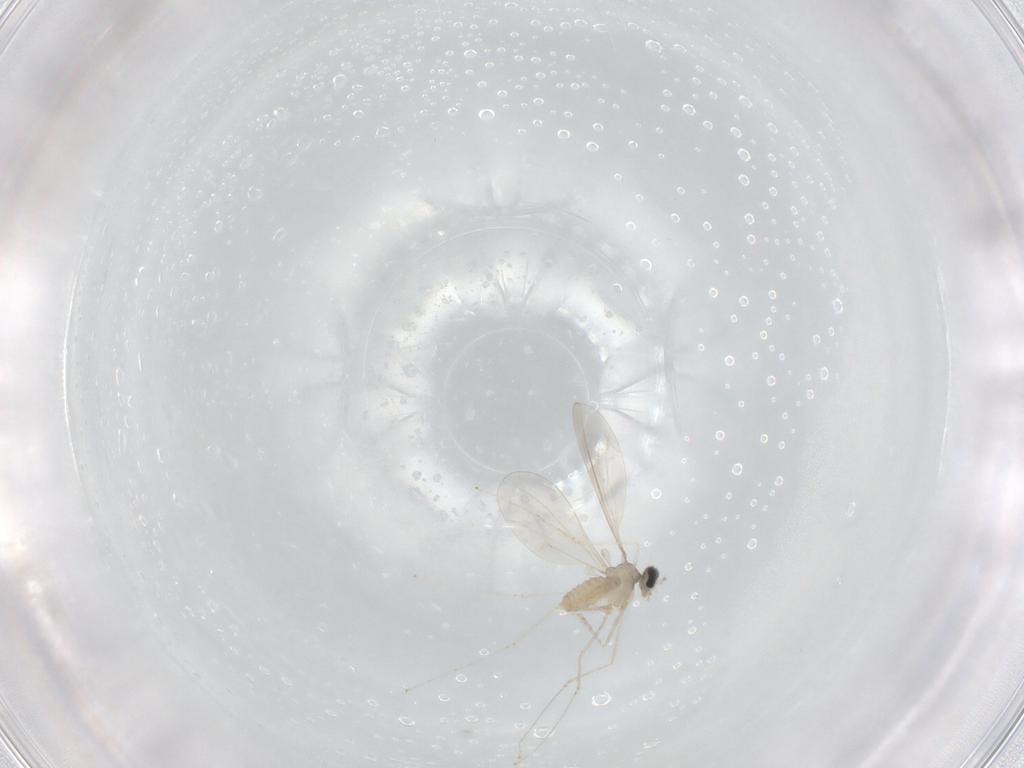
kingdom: Animalia
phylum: Arthropoda
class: Insecta
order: Diptera
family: Cecidomyiidae
